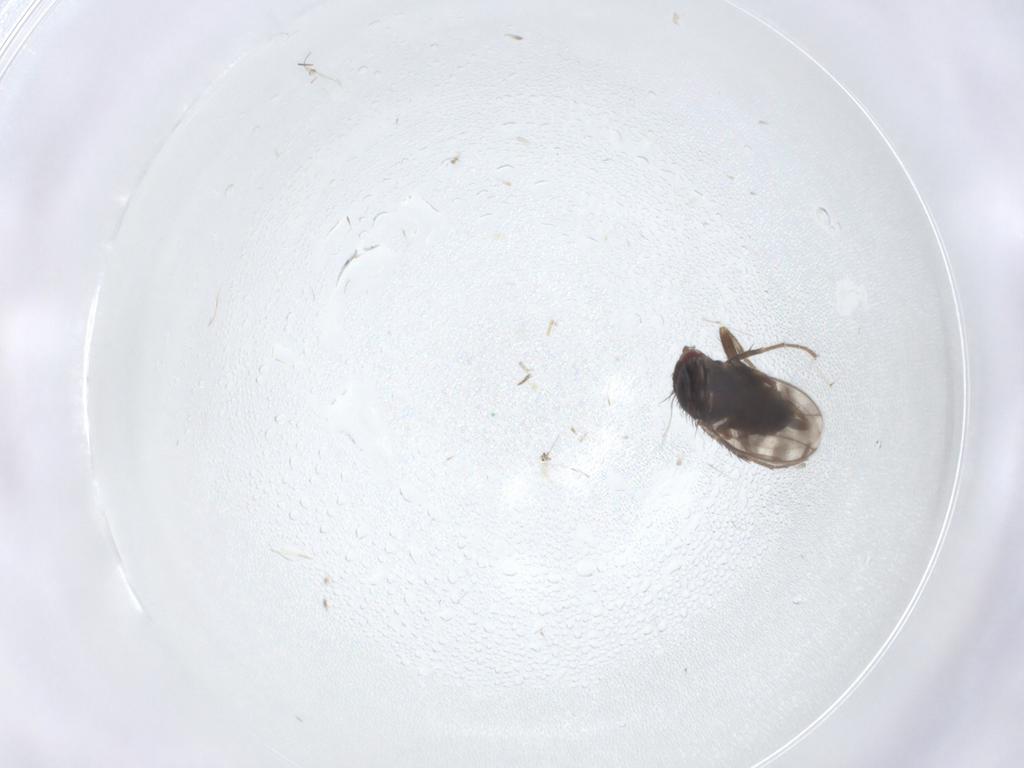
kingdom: Animalia
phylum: Arthropoda
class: Insecta
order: Diptera
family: Sphaeroceridae
